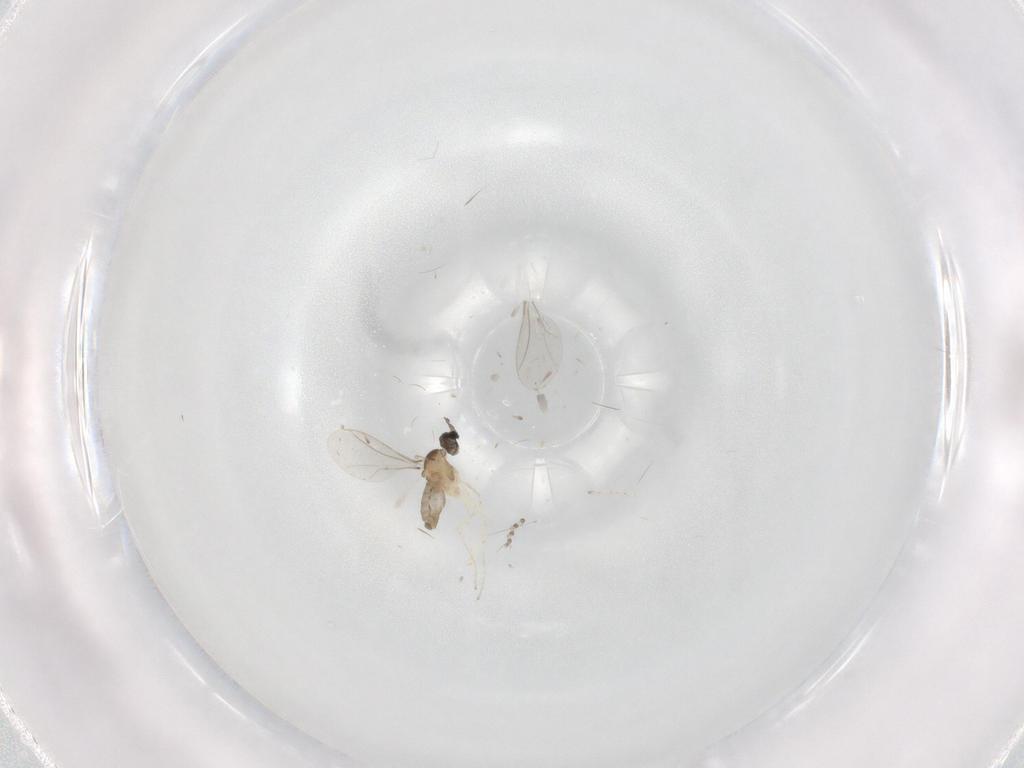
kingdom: Animalia
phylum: Arthropoda
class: Insecta
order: Diptera
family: Cecidomyiidae
